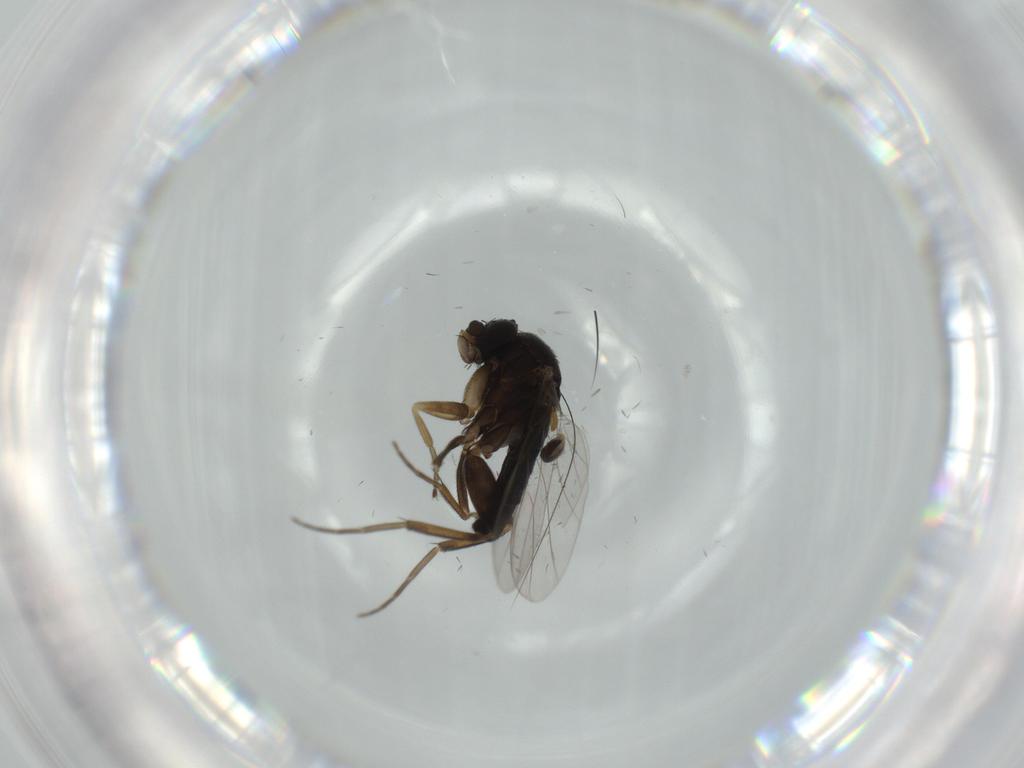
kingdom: Animalia
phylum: Arthropoda
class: Insecta
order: Diptera
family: Phoridae
